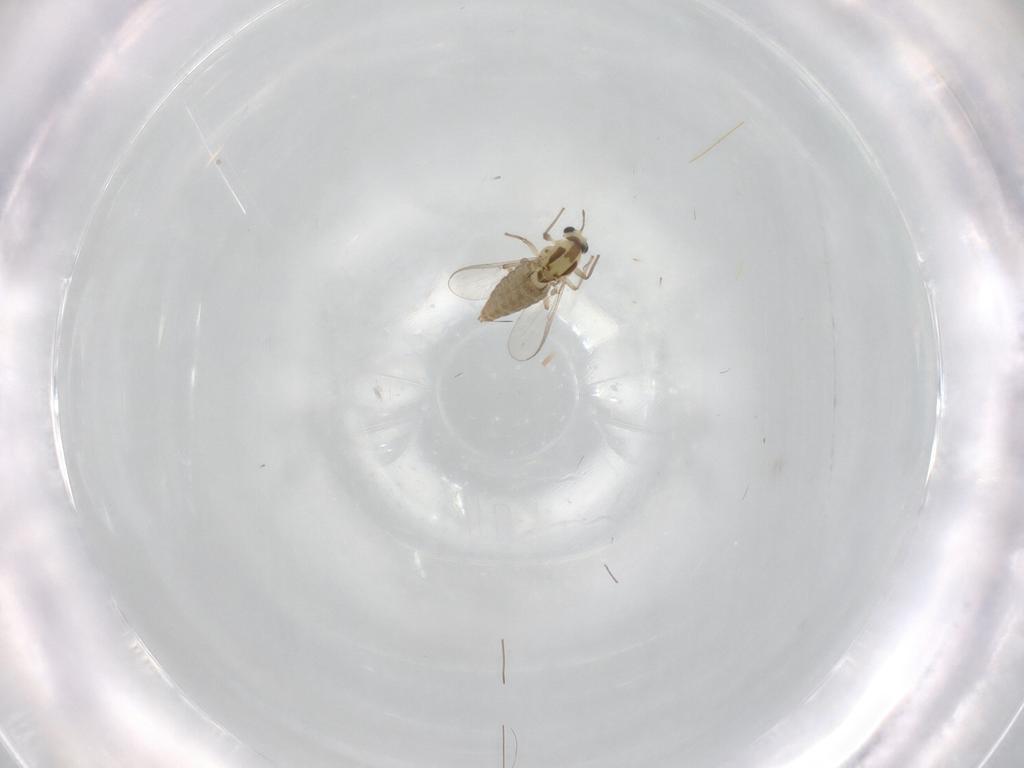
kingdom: Animalia
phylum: Arthropoda
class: Insecta
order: Diptera
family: Chironomidae
